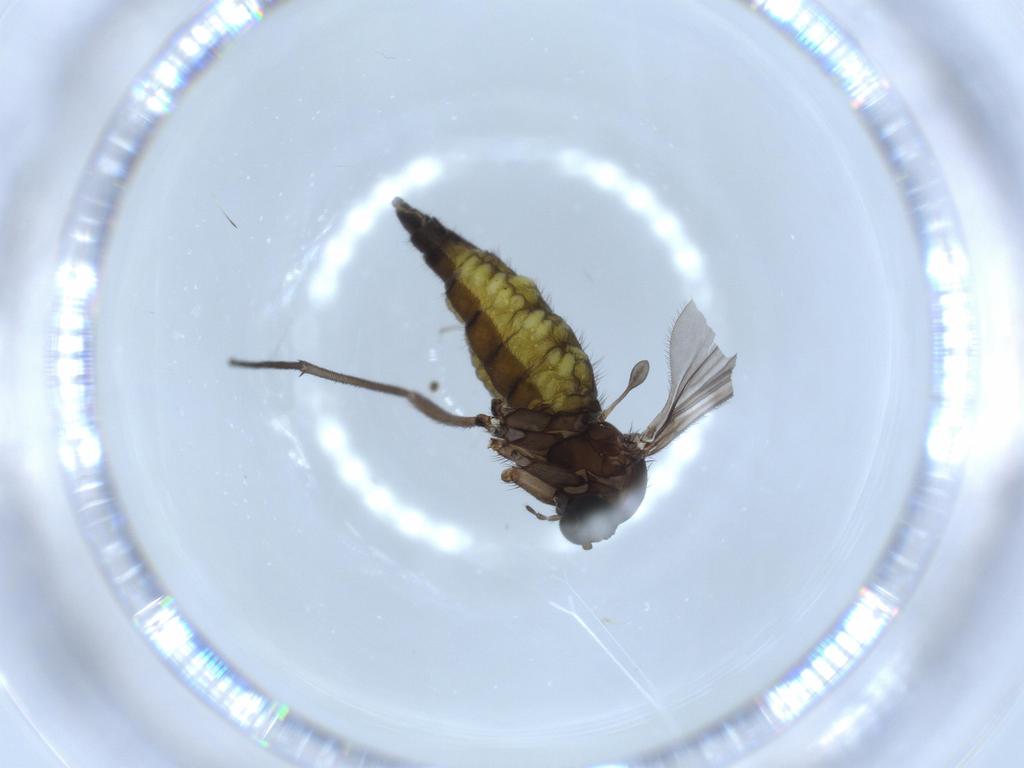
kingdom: Animalia
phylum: Arthropoda
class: Insecta
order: Diptera
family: Sciaridae
